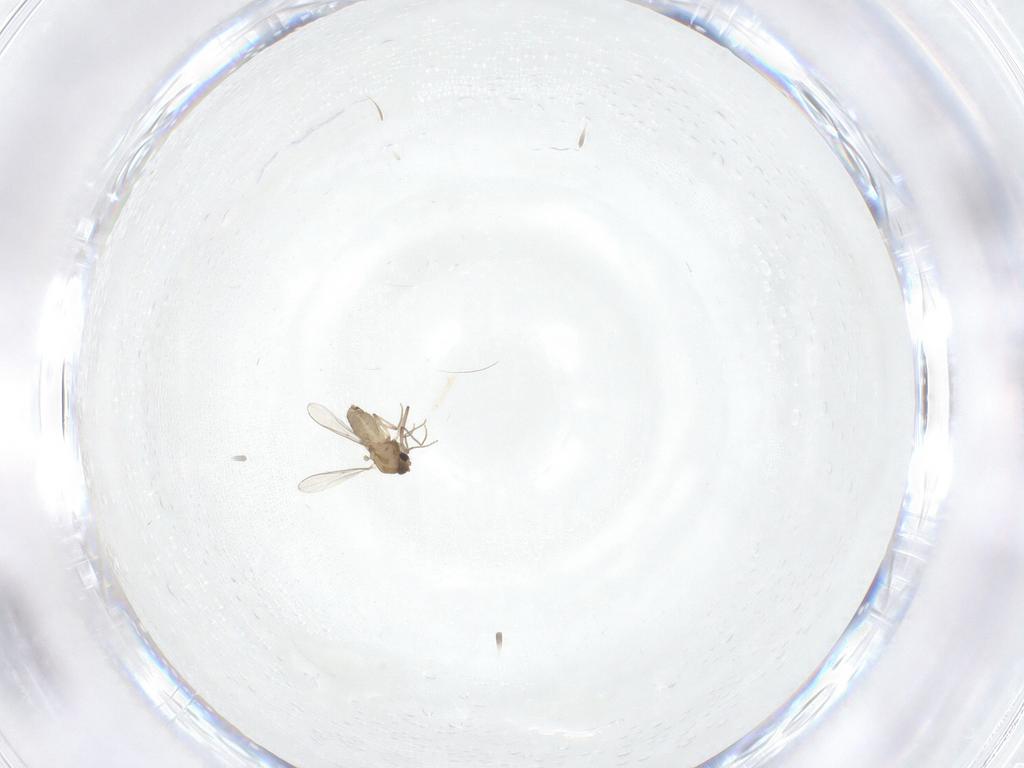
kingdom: Animalia
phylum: Arthropoda
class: Insecta
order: Diptera
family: Chironomidae
